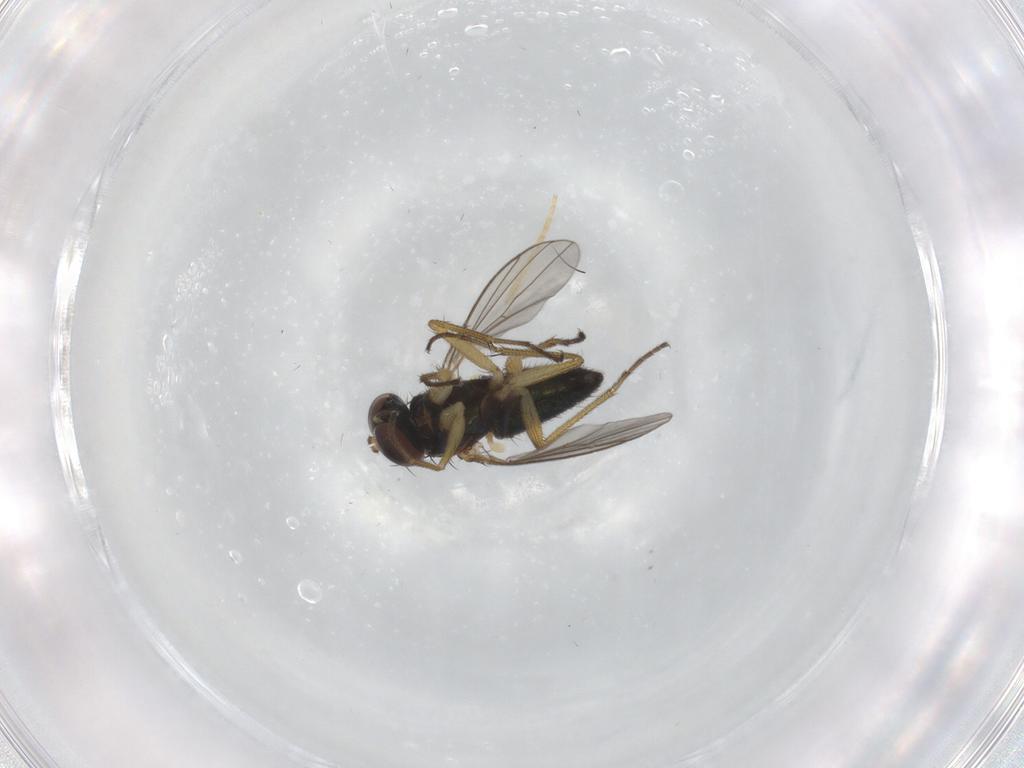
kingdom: Animalia
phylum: Arthropoda
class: Insecta
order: Diptera
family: Chironomidae
